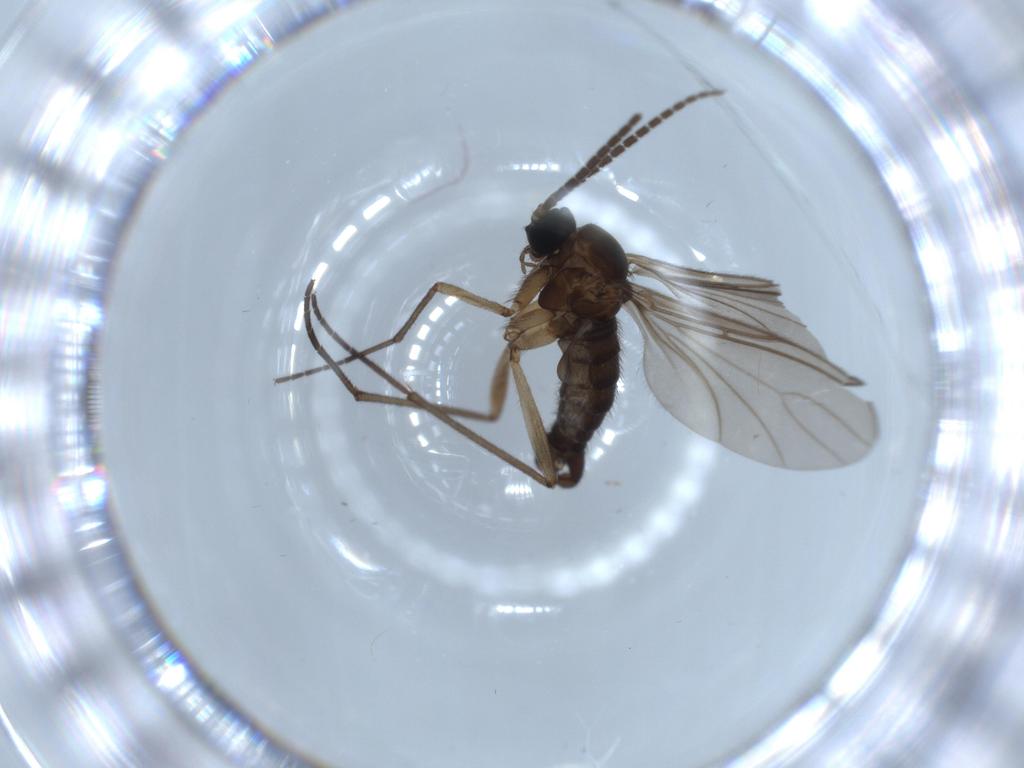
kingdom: Animalia
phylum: Arthropoda
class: Insecta
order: Diptera
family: Sciaridae
